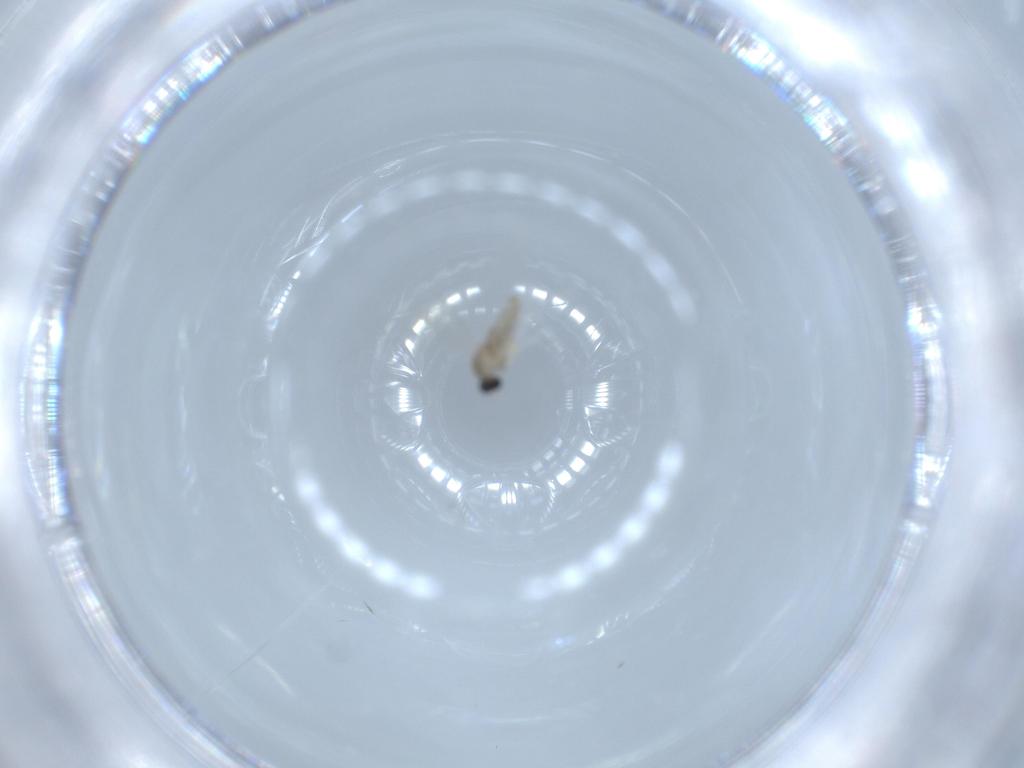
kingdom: Animalia
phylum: Arthropoda
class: Insecta
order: Diptera
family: Cecidomyiidae
